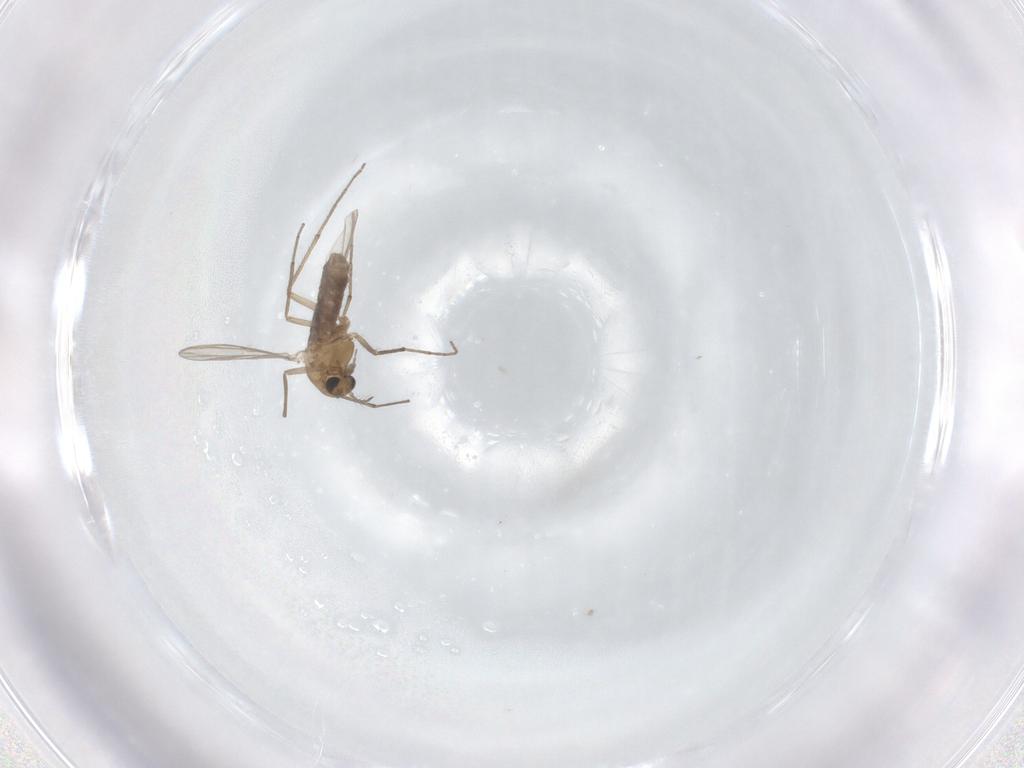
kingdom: Animalia
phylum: Arthropoda
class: Insecta
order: Diptera
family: Chironomidae
